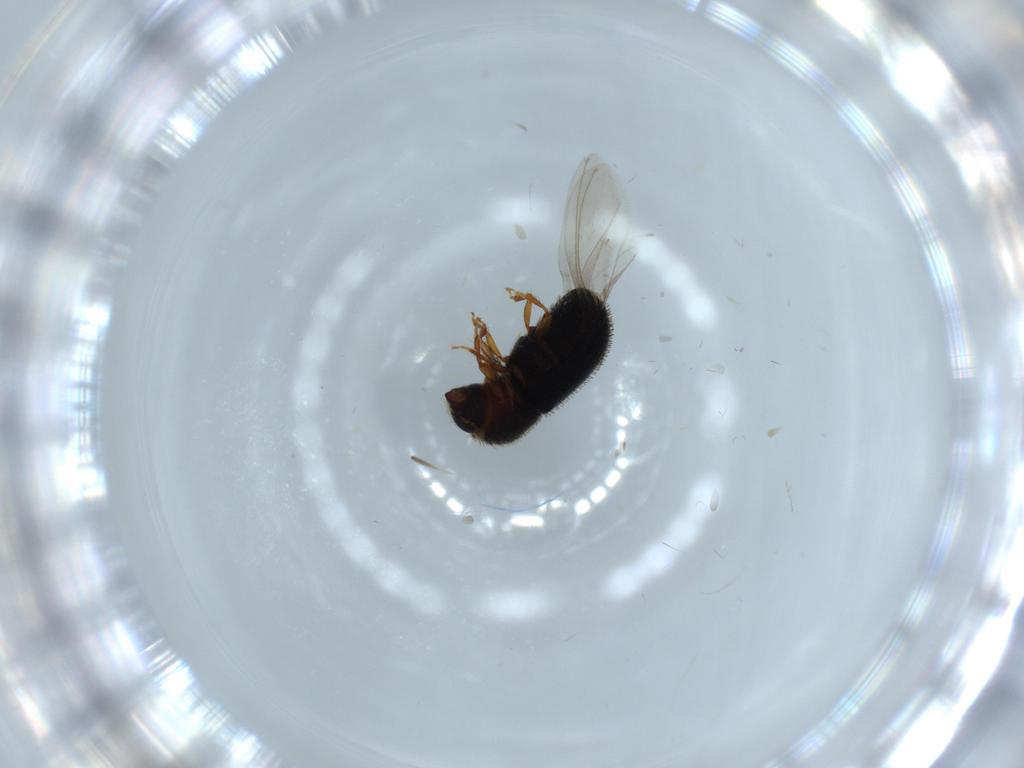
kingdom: Animalia
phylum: Arthropoda
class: Insecta
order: Coleoptera
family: Curculionidae
